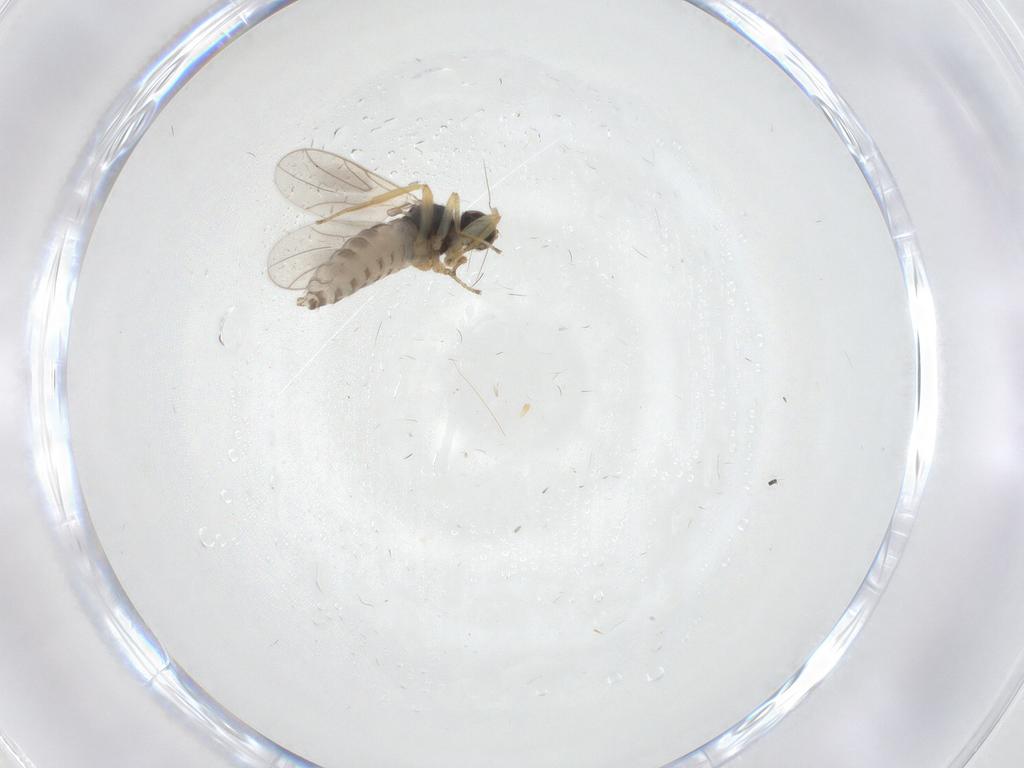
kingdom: Animalia
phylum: Arthropoda
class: Insecta
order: Diptera
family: Hybotidae
